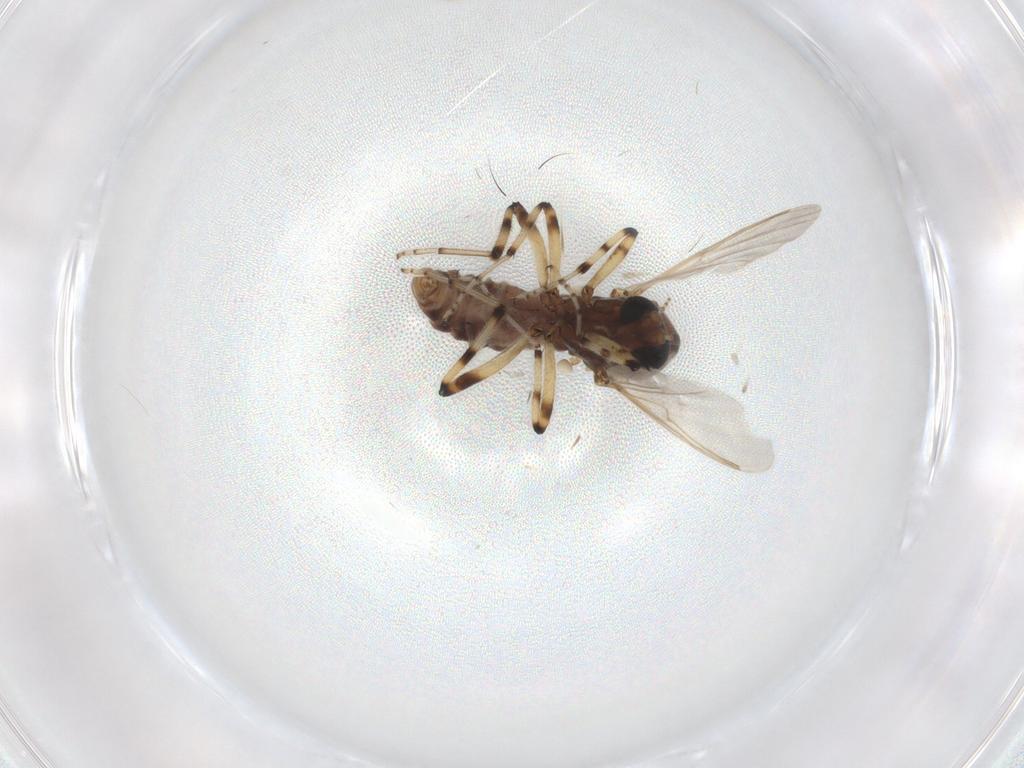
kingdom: Animalia
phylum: Arthropoda
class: Insecta
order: Diptera
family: Ceratopogonidae
